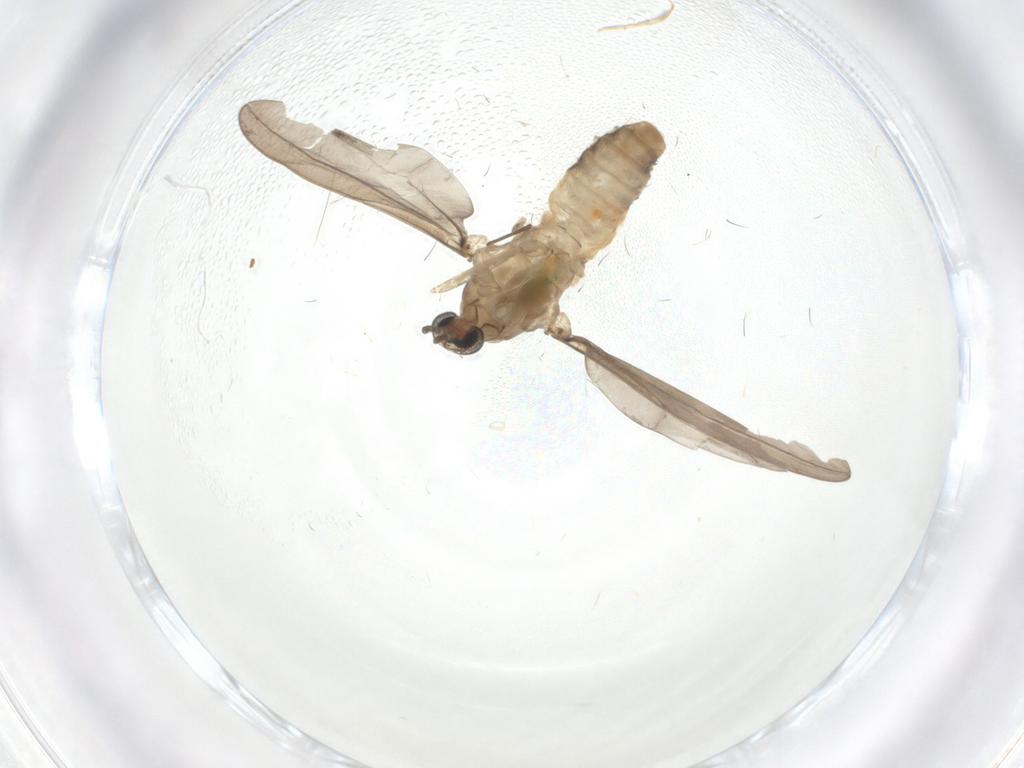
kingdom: Animalia
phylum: Arthropoda
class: Insecta
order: Diptera
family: Cecidomyiidae
